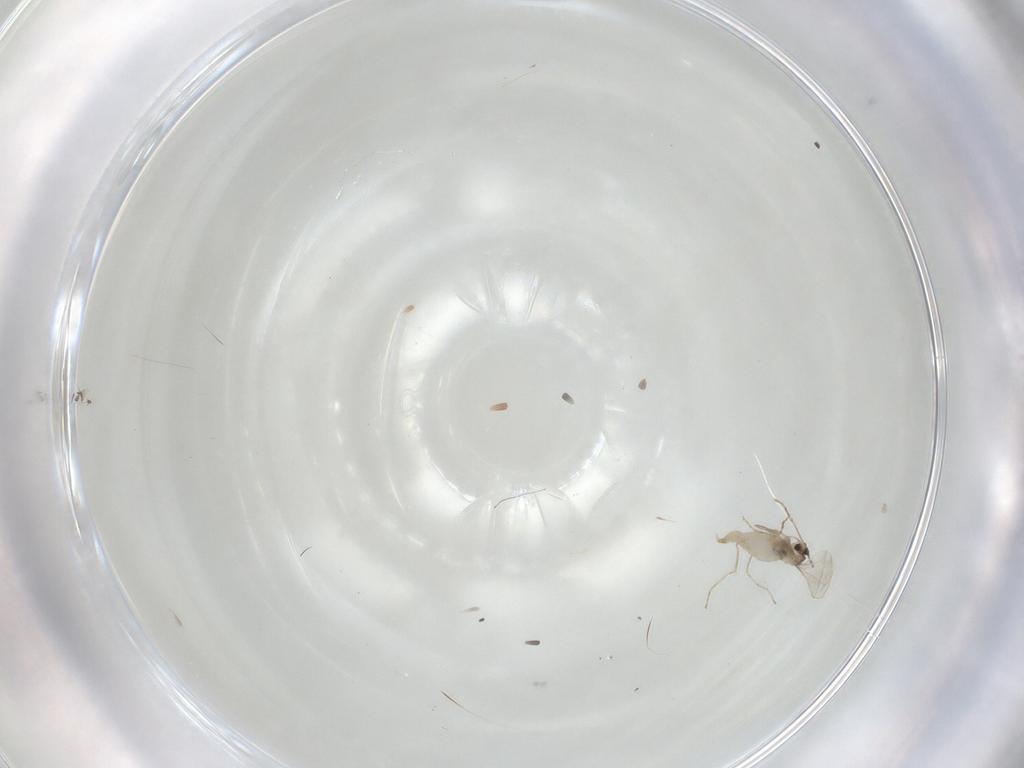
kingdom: Animalia
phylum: Arthropoda
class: Insecta
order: Diptera
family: Cecidomyiidae
